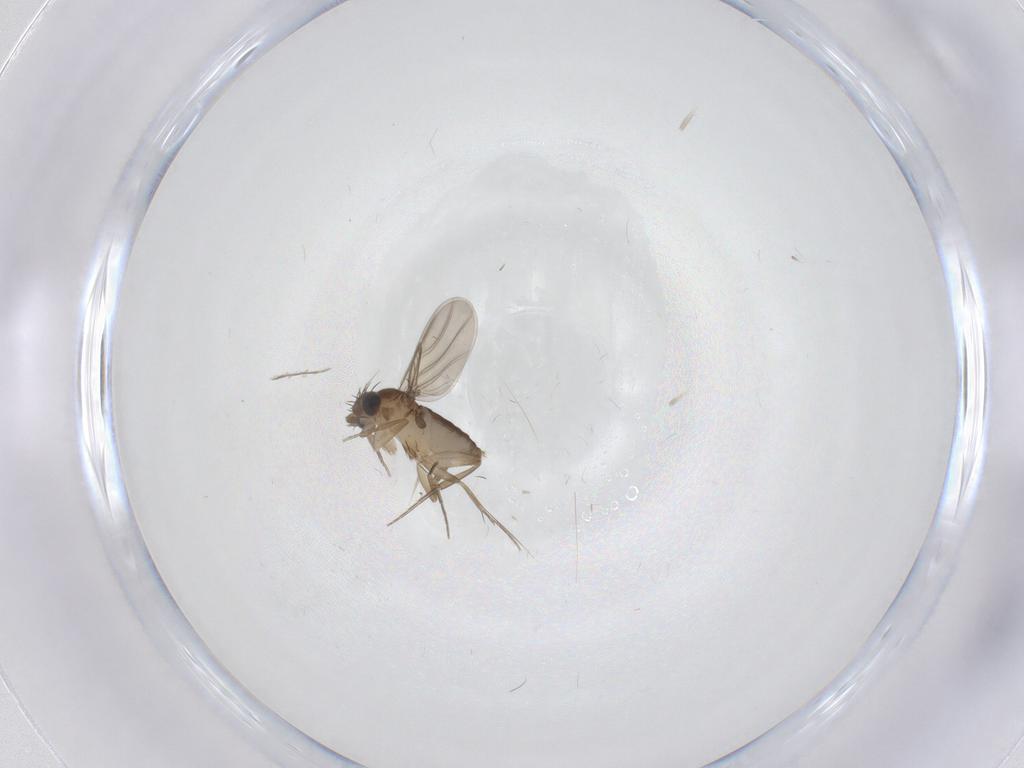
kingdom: Animalia
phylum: Arthropoda
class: Insecta
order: Diptera
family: Phoridae
